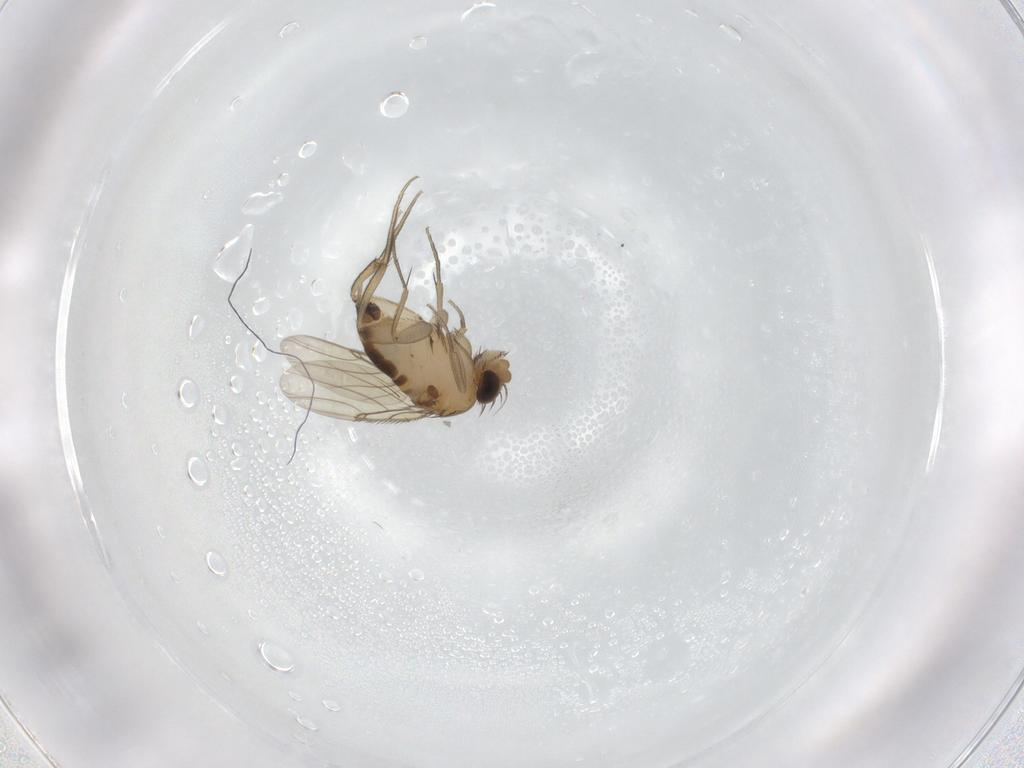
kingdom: Animalia
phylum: Arthropoda
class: Insecta
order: Diptera
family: Phoridae
